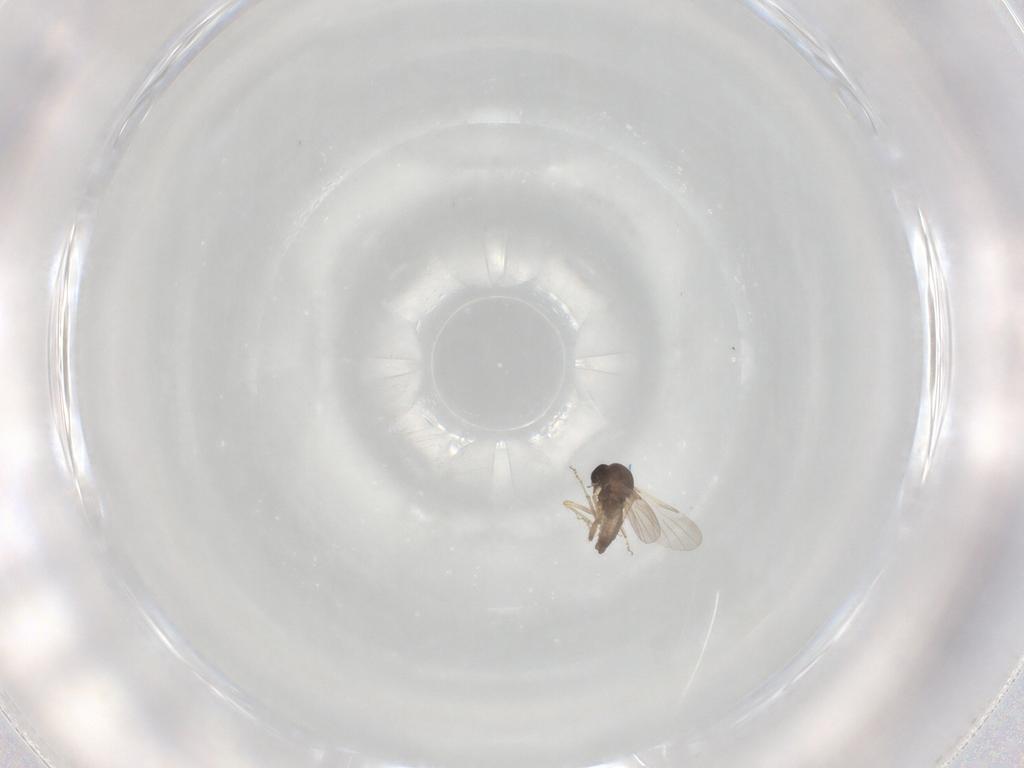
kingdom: Animalia
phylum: Arthropoda
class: Insecta
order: Diptera
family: Ceratopogonidae
